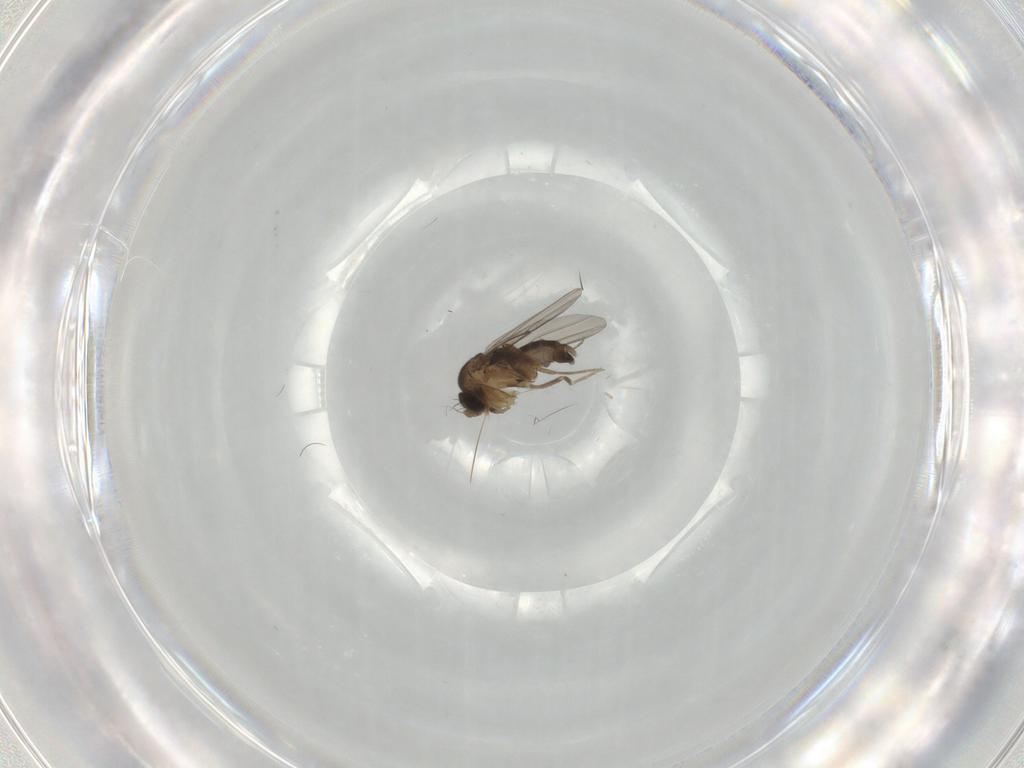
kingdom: Animalia
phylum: Arthropoda
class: Insecta
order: Diptera
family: Phoridae
